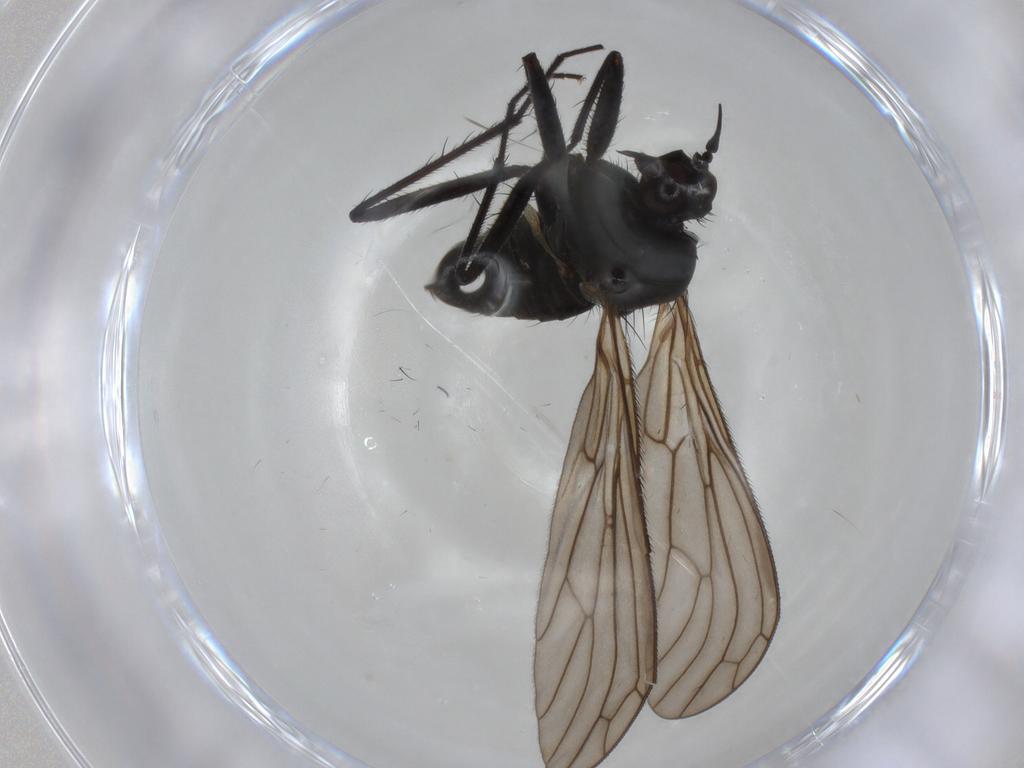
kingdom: Animalia
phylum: Arthropoda
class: Insecta
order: Diptera
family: Empididae
